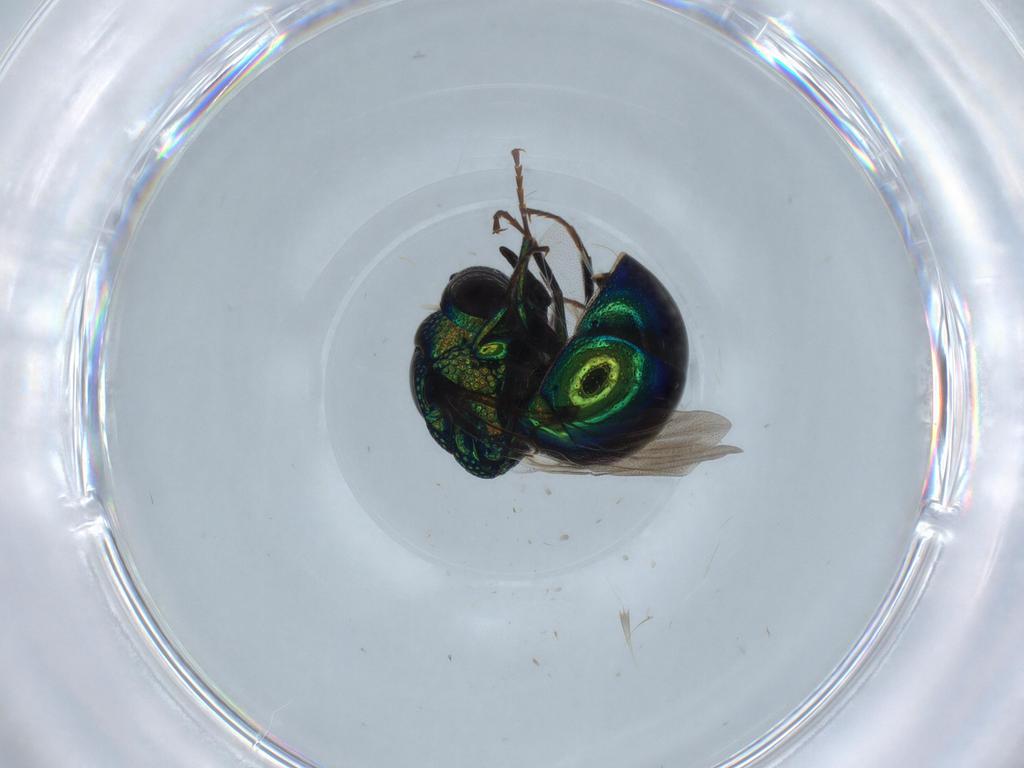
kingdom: Animalia
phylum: Arthropoda
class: Insecta
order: Hymenoptera
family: Chrysididae
